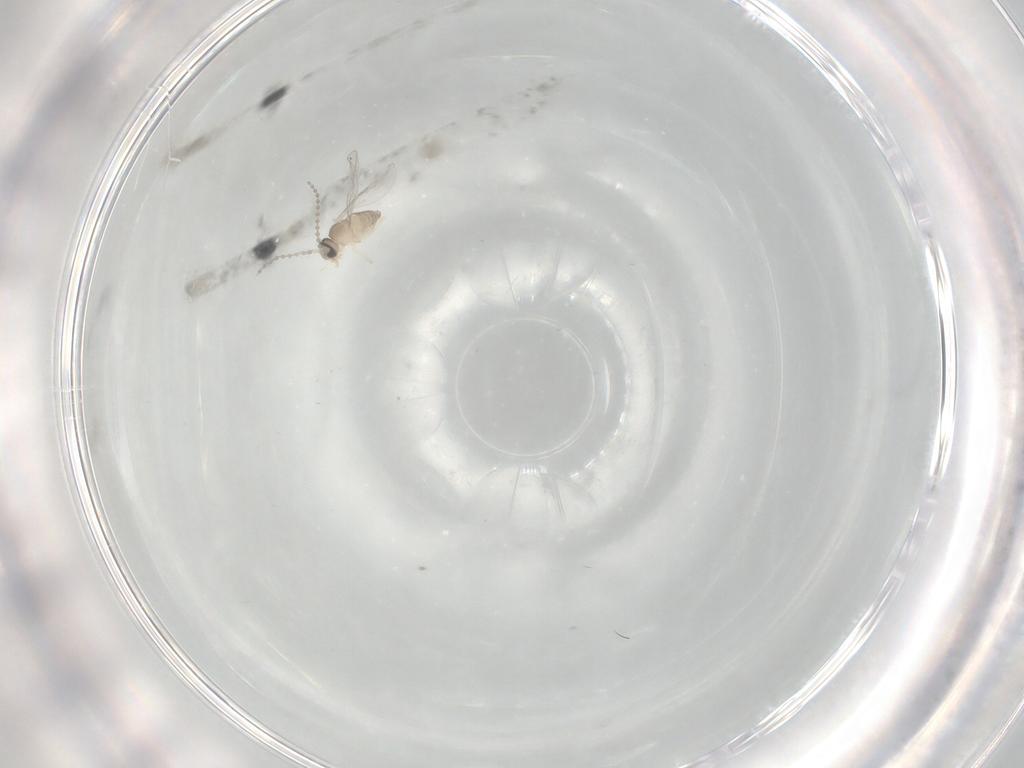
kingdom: Animalia
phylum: Arthropoda
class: Insecta
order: Diptera
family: Cecidomyiidae
